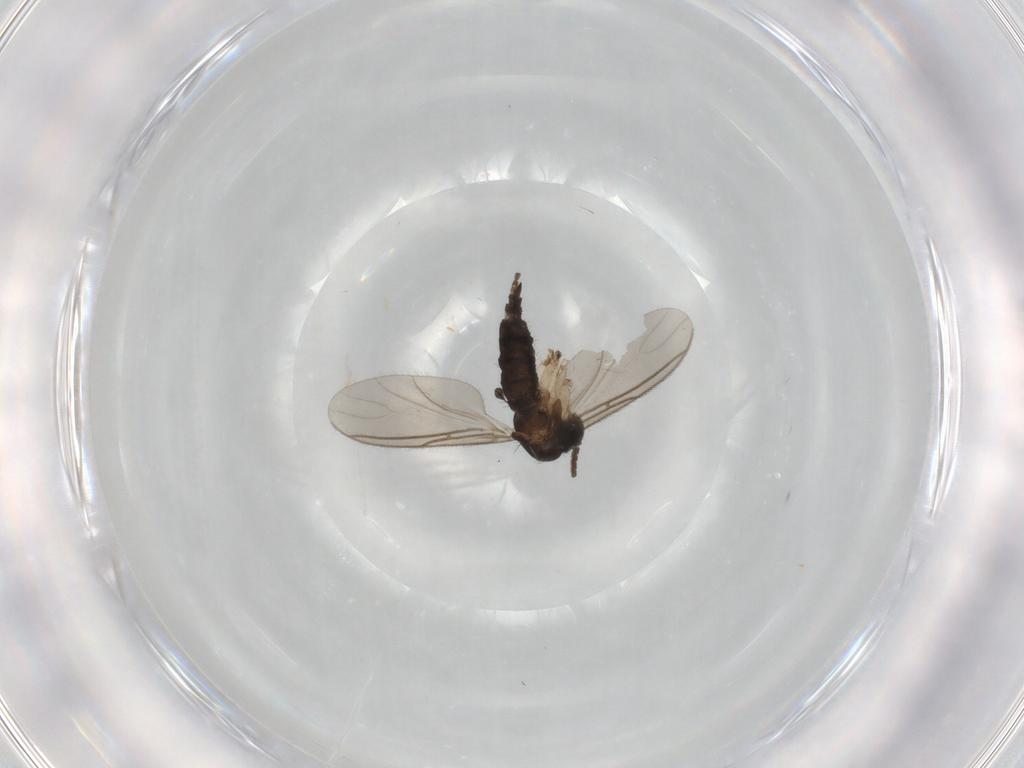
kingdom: Animalia
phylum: Arthropoda
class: Insecta
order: Diptera
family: Sciaridae
